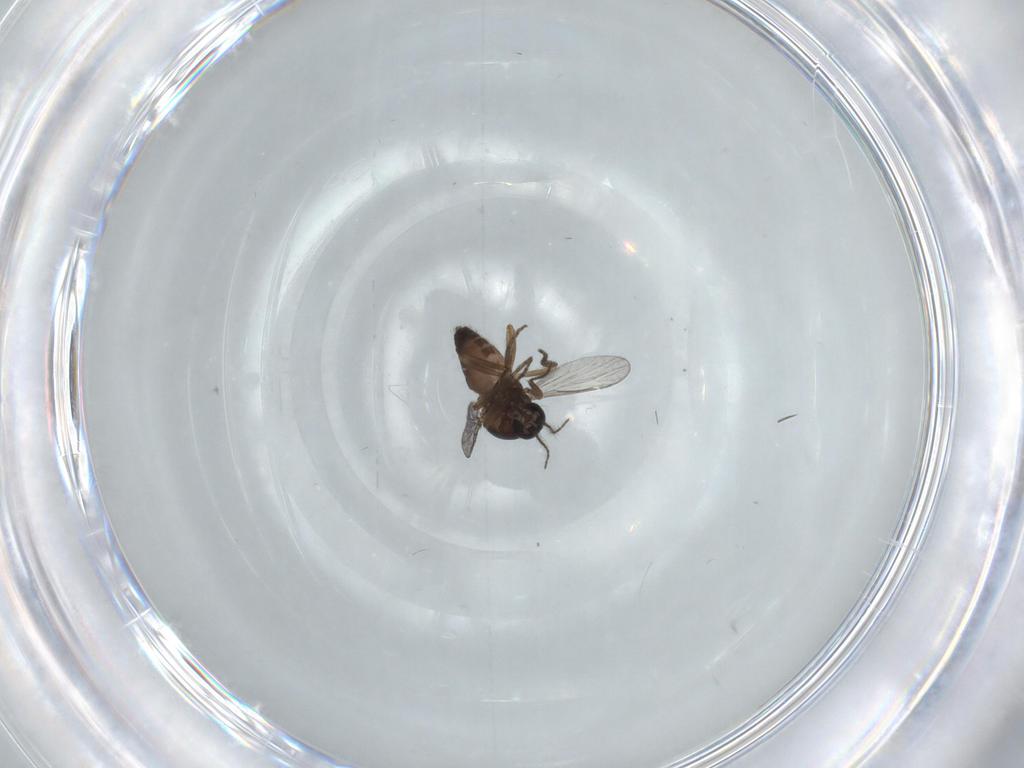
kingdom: Animalia
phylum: Arthropoda
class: Insecta
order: Diptera
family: Chironomidae
